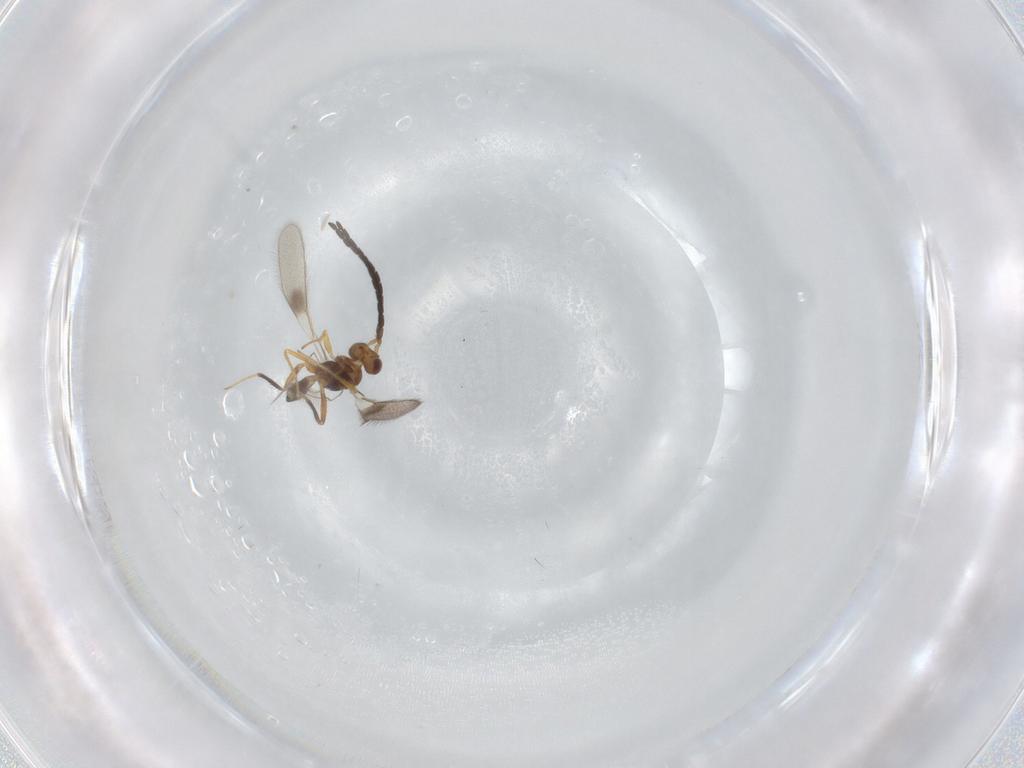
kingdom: Animalia
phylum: Arthropoda
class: Insecta
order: Hymenoptera
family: Mymaridae
